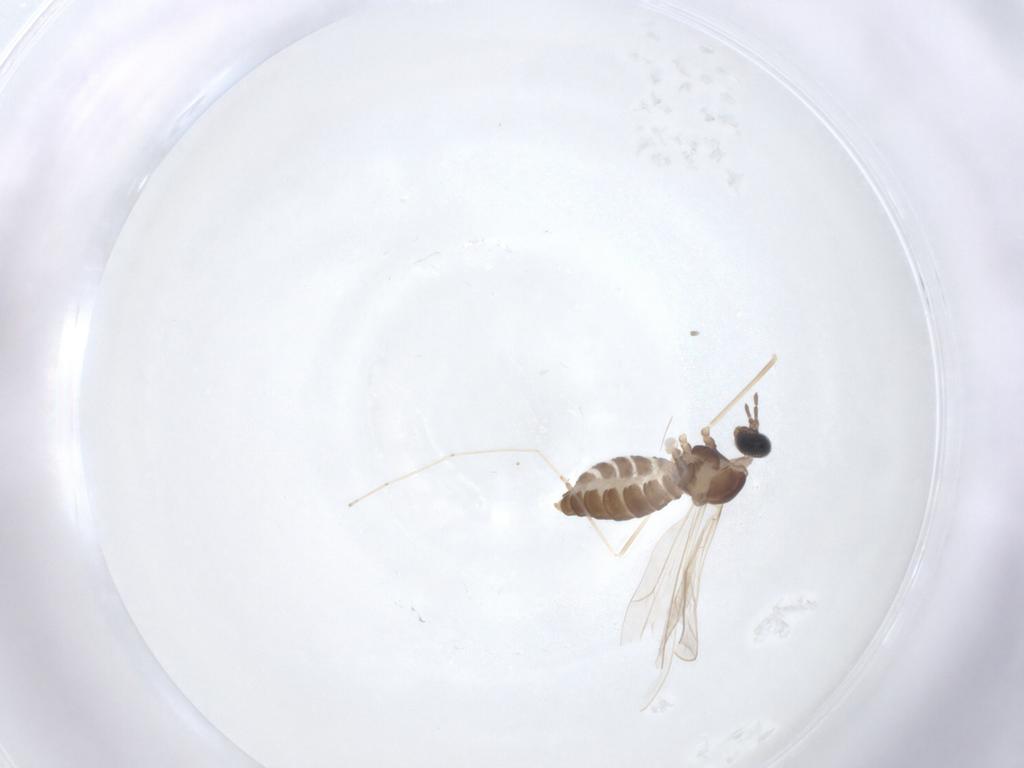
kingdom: Animalia
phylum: Arthropoda
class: Insecta
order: Diptera
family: Cecidomyiidae
